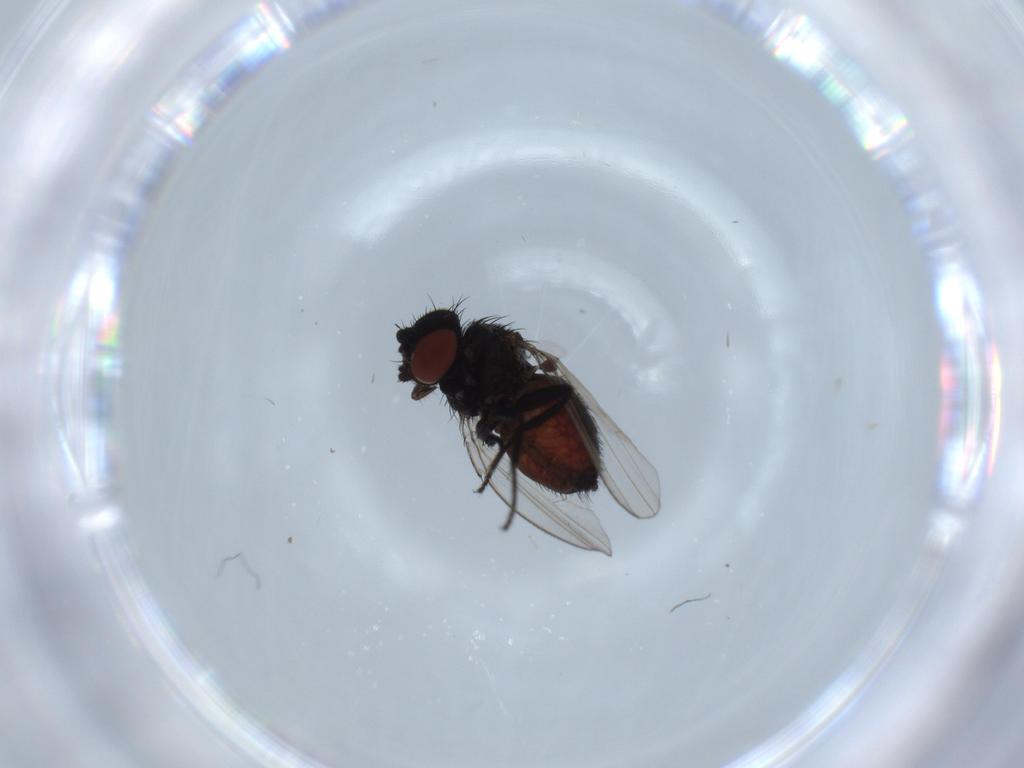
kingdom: Animalia
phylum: Arthropoda
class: Insecta
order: Diptera
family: Milichiidae
